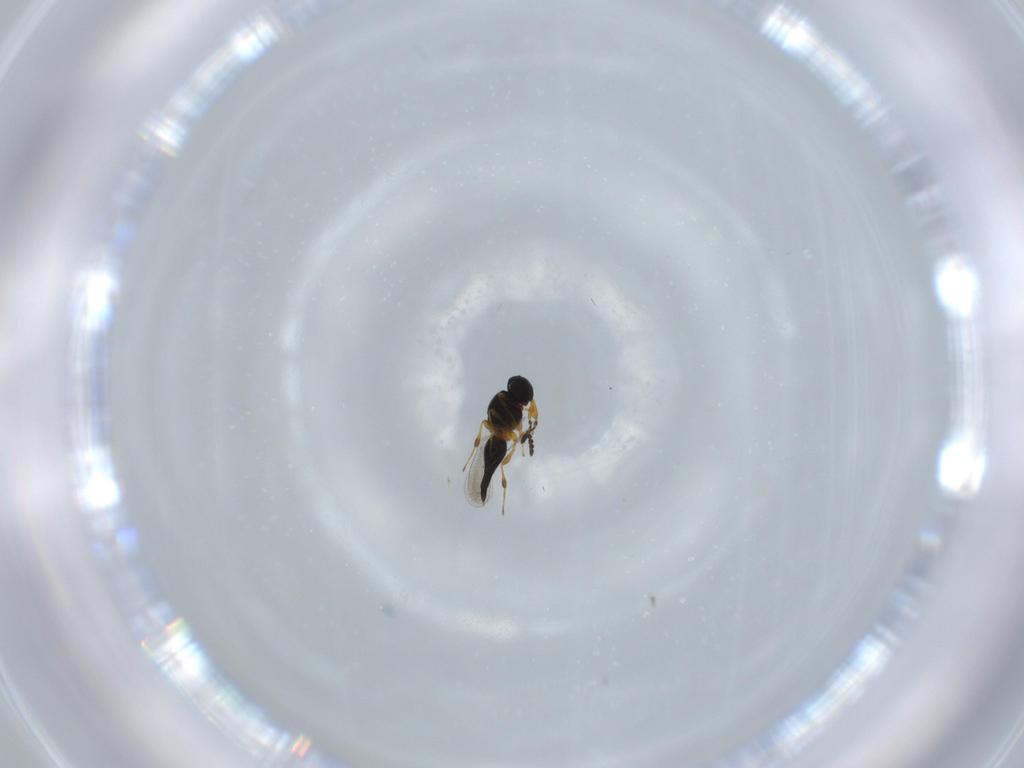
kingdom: Animalia
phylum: Arthropoda
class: Insecta
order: Hymenoptera
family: Platygastridae
